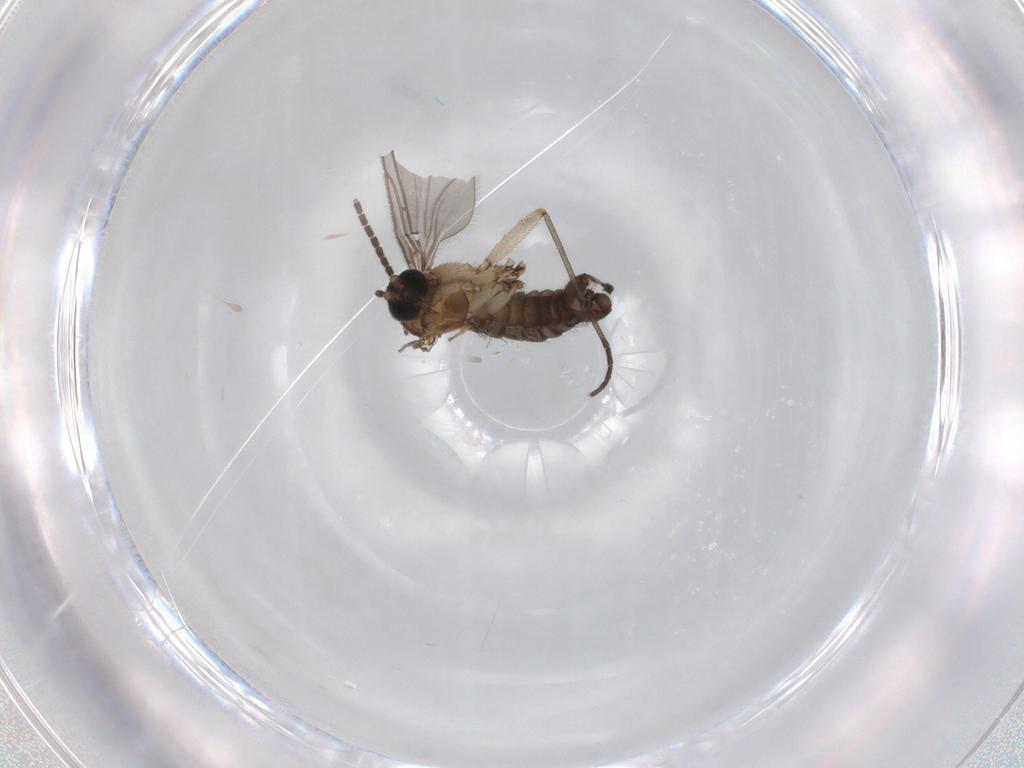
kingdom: Animalia
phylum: Arthropoda
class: Insecta
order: Diptera
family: Sciaridae
